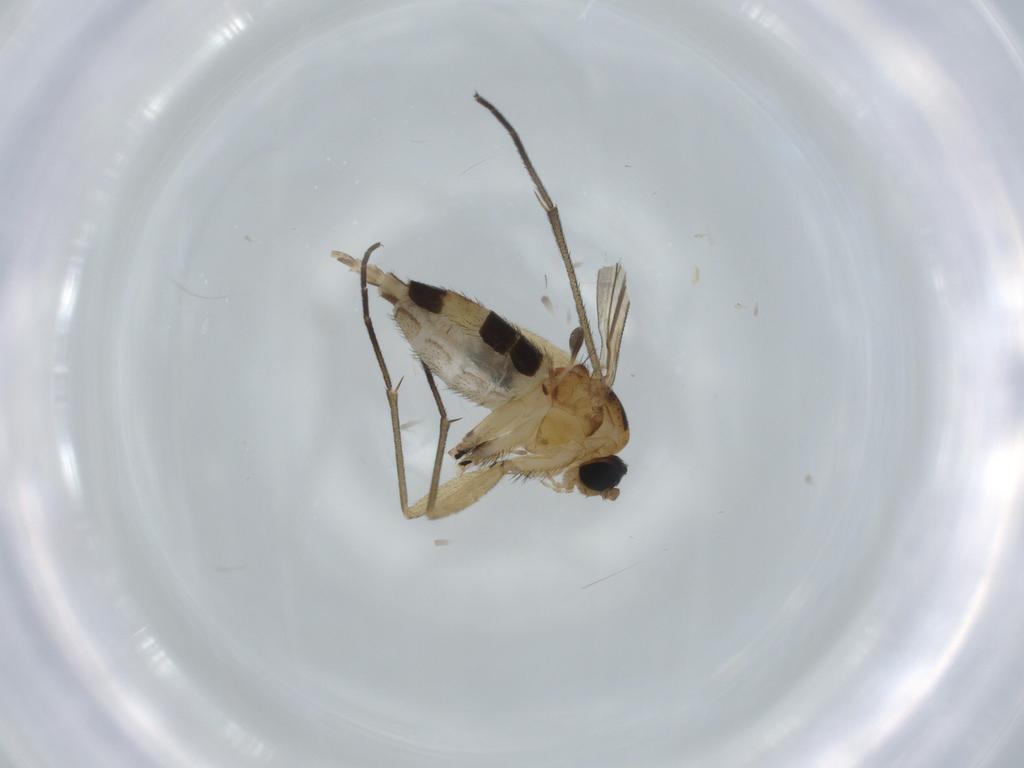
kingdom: Animalia
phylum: Arthropoda
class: Insecta
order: Diptera
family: Sciaridae
